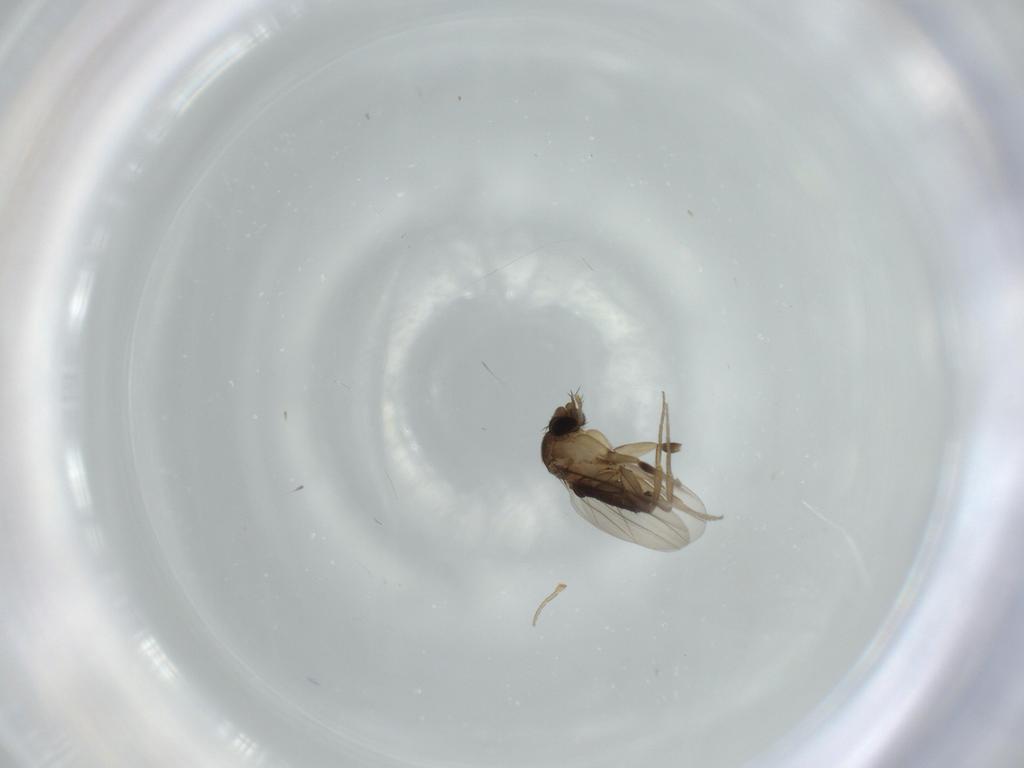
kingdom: Animalia
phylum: Arthropoda
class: Insecta
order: Diptera
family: Phoridae
